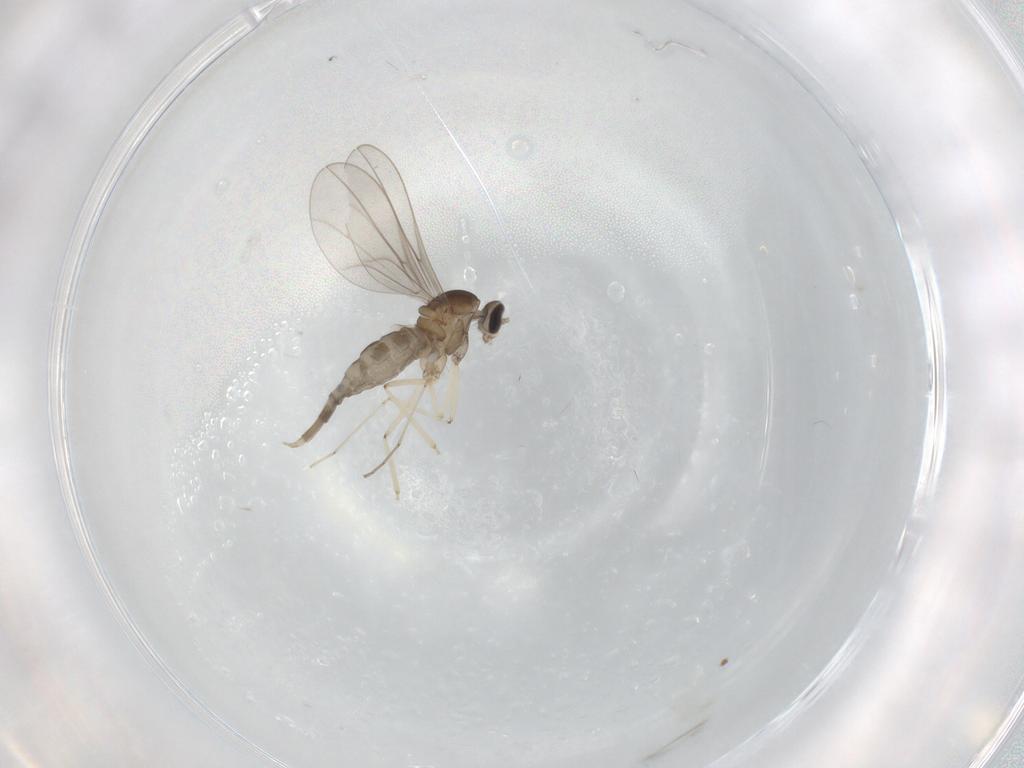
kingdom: Animalia
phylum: Arthropoda
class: Insecta
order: Diptera
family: Cecidomyiidae
